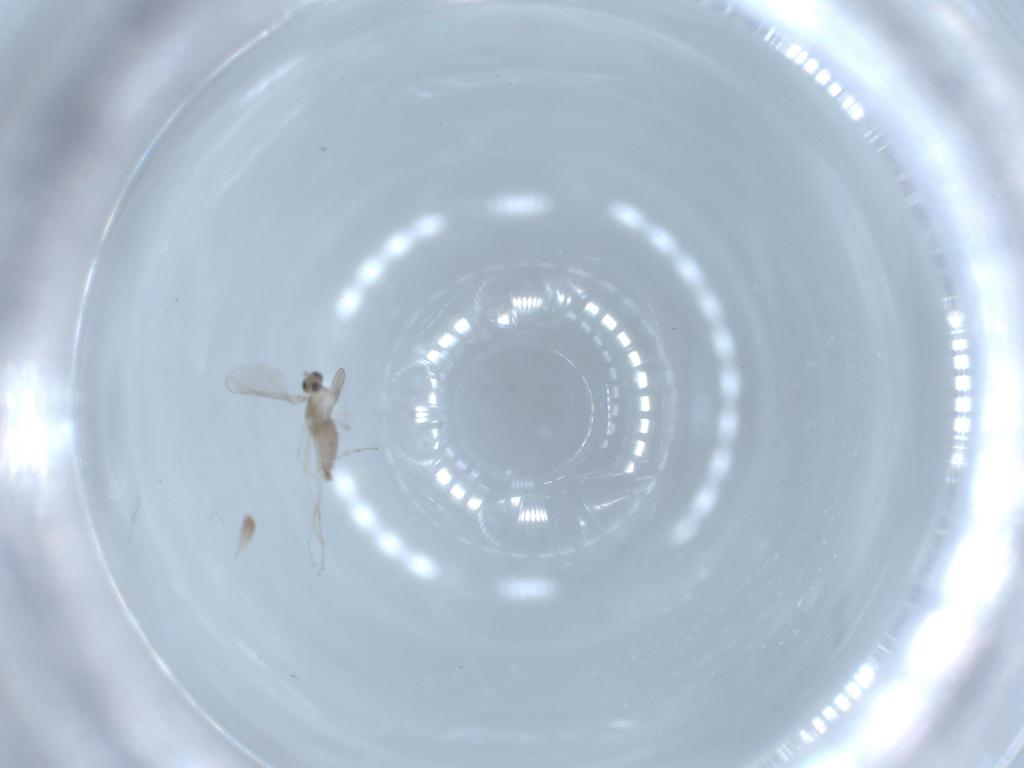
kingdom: Animalia
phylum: Arthropoda
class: Insecta
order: Diptera
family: Cecidomyiidae
